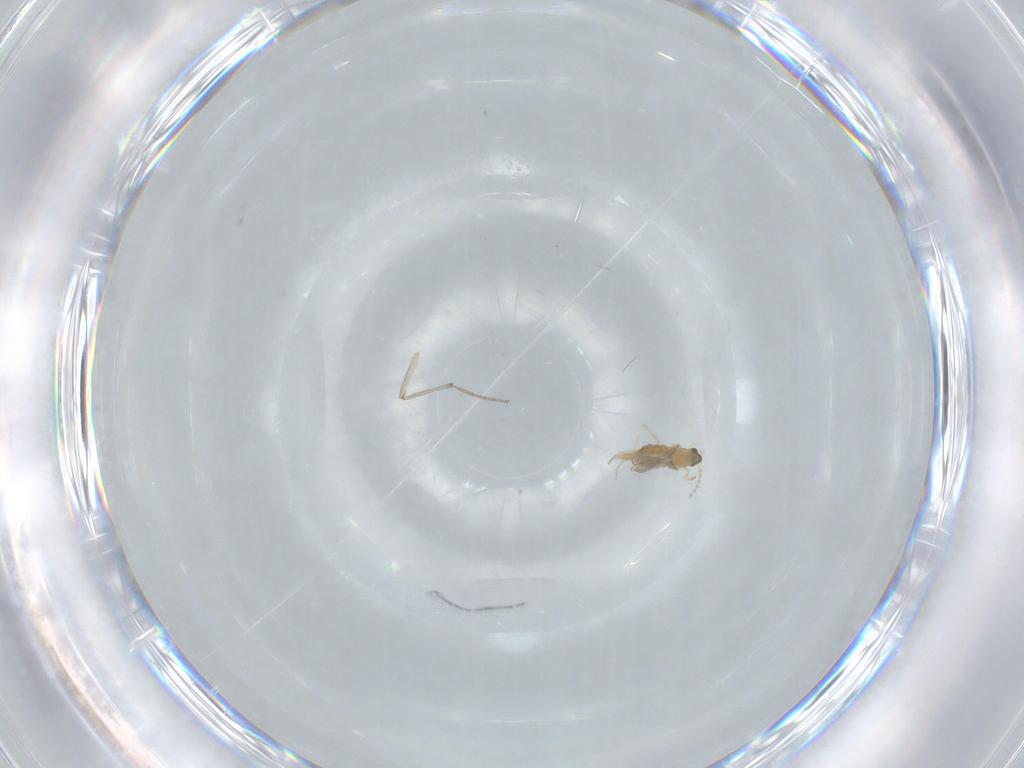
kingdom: Animalia
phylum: Arthropoda
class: Insecta
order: Diptera
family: Cecidomyiidae
